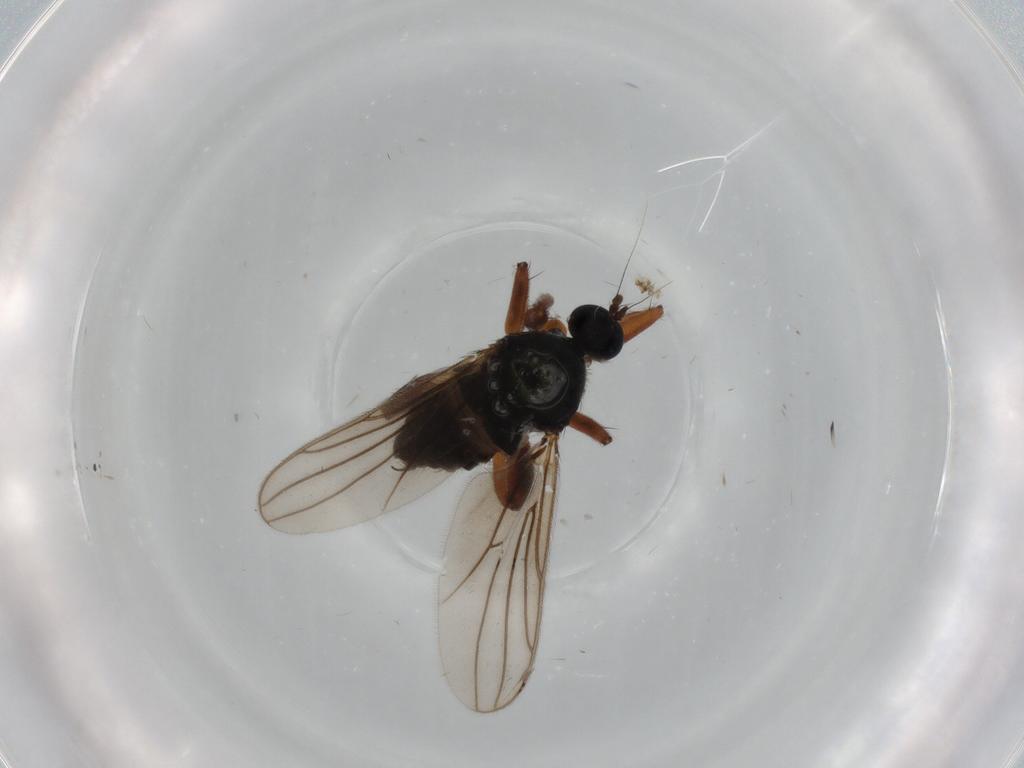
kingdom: Animalia
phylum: Arthropoda
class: Insecta
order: Diptera
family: Hybotidae
